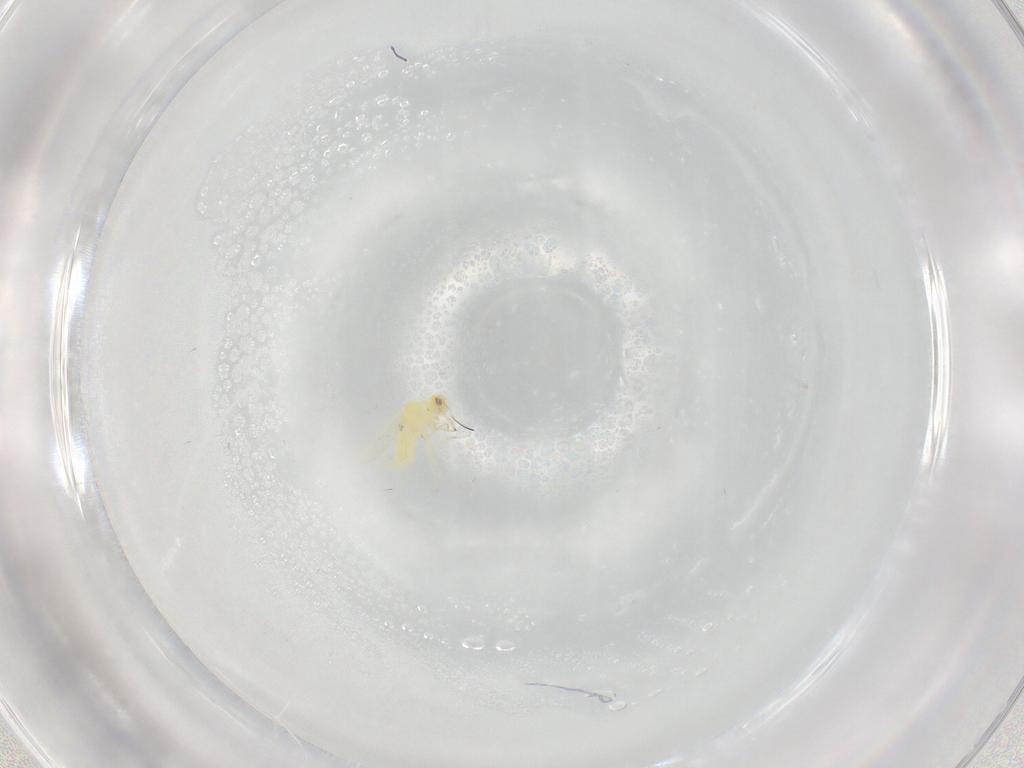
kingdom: Animalia
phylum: Arthropoda
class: Insecta
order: Hemiptera
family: Aleyrodidae
